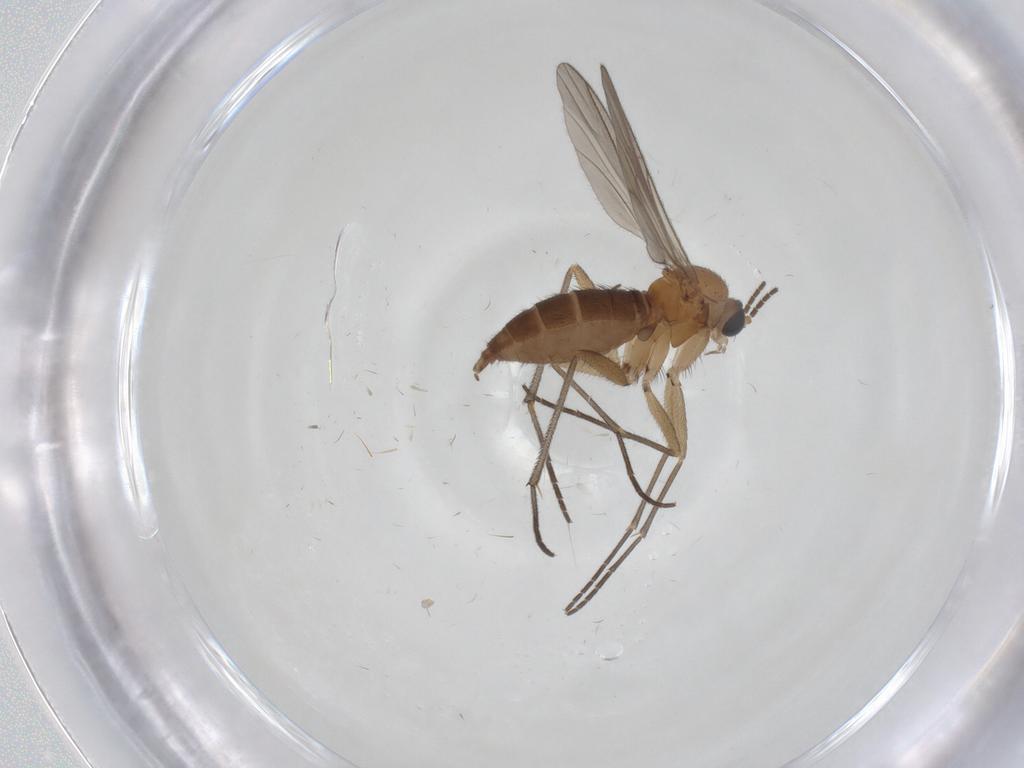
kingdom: Animalia
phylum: Arthropoda
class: Insecta
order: Diptera
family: Sciaridae
